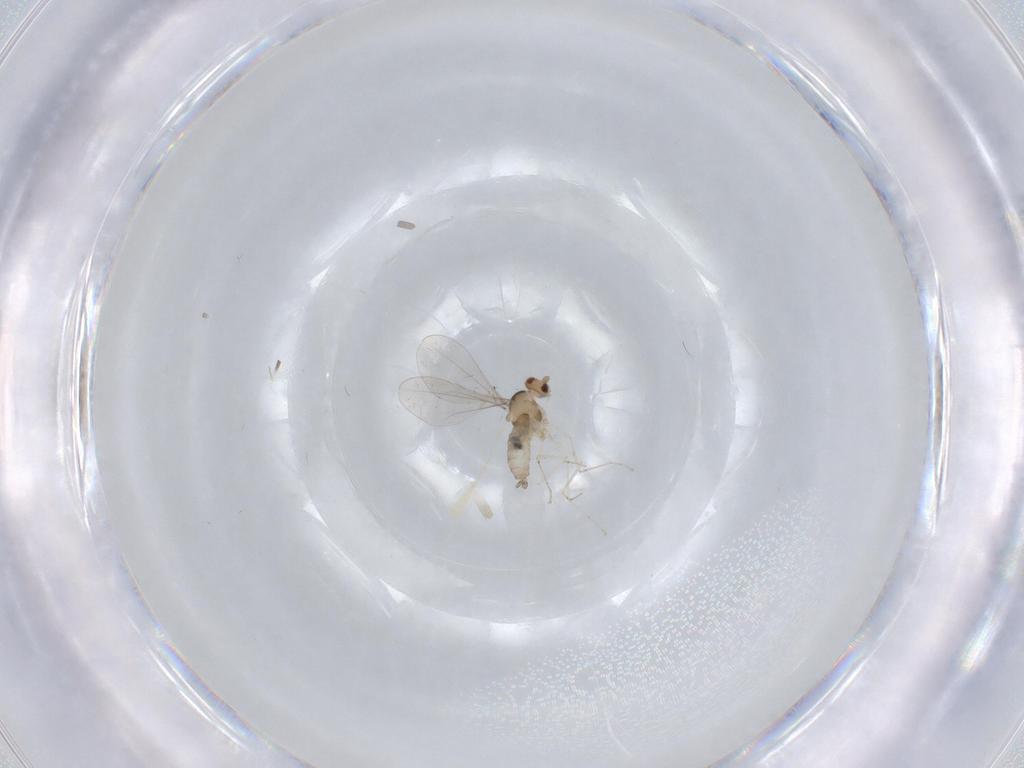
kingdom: Animalia
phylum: Arthropoda
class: Insecta
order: Diptera
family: Cecidomyiidae
